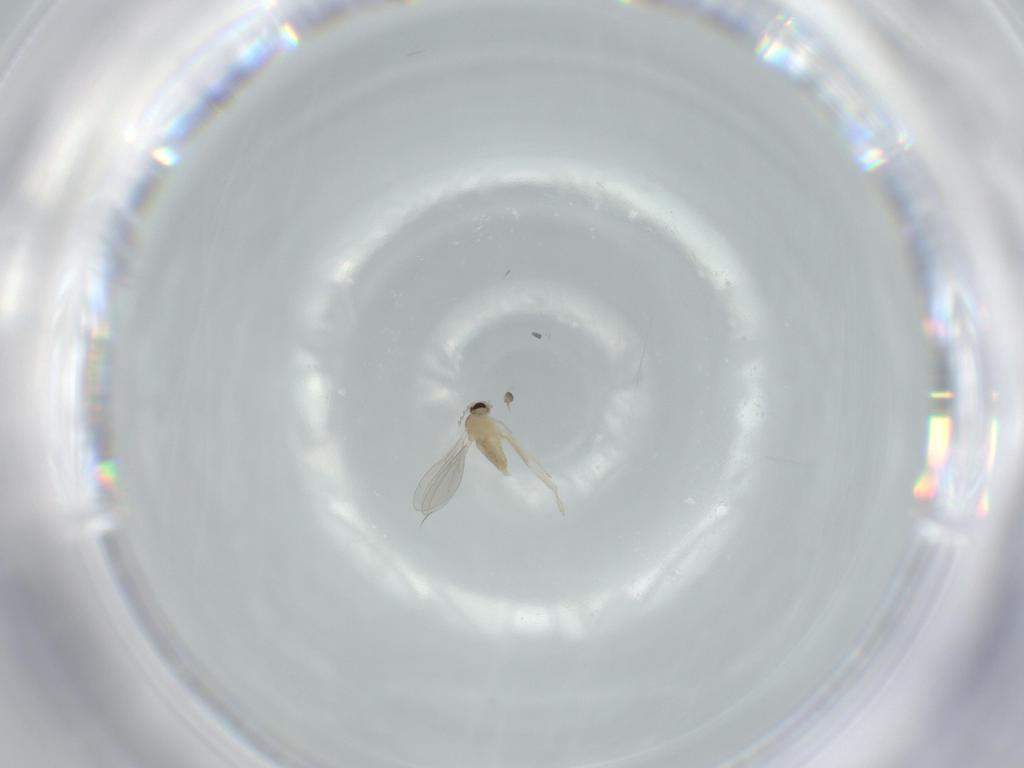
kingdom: Animalia
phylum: Arthropoda
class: Insecta
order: Diptera
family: Cecidomyiidae
